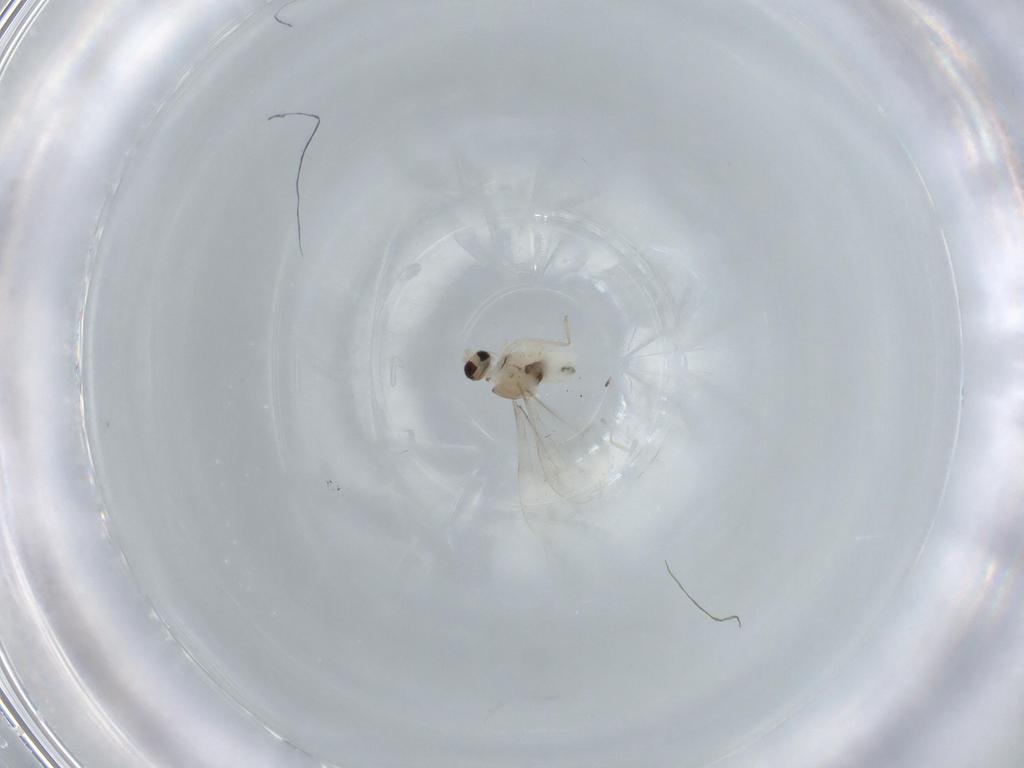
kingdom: Animalia
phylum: Arthropoda
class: Insecta
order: Diptera
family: Cecidomyiidae
